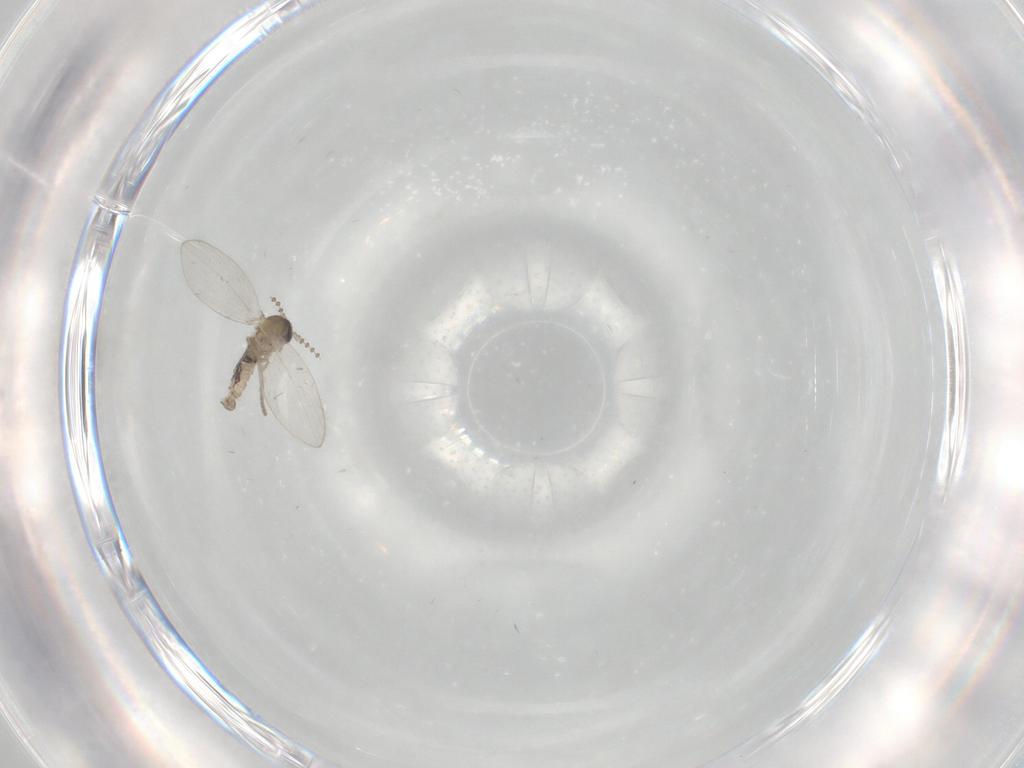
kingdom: Animalia
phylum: Arthropoda
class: Insecta
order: Diptera
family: Psychodidae
